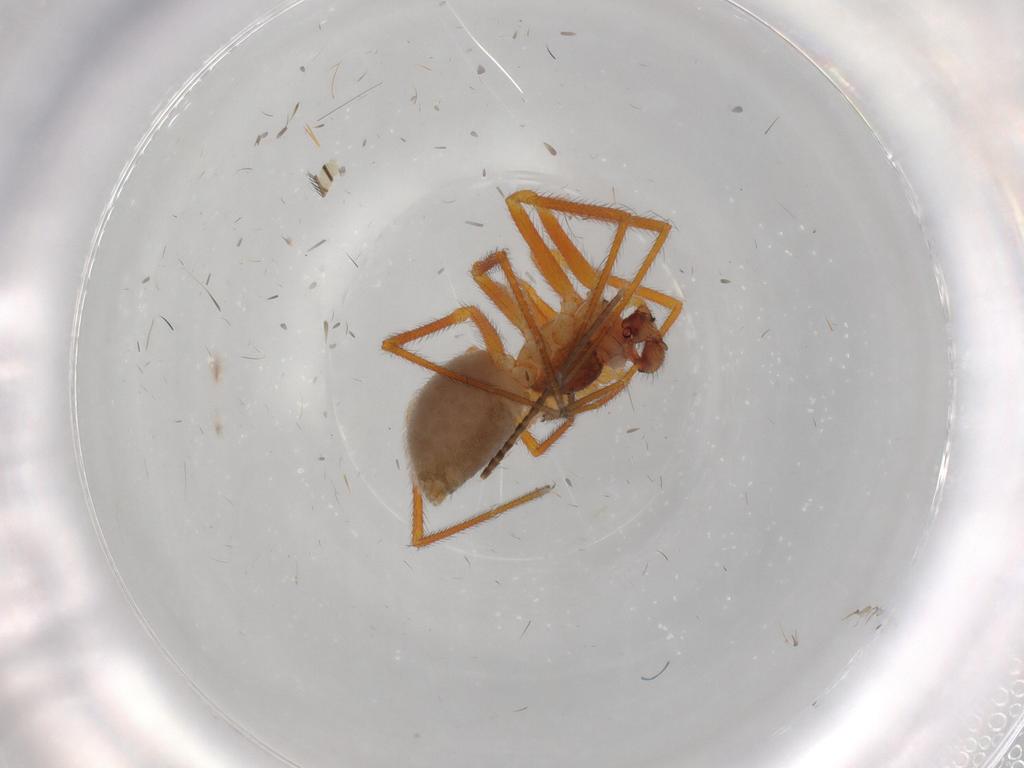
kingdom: Animalia
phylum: Arthropoda
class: Arachnida
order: Araneae
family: Linyphiidae
